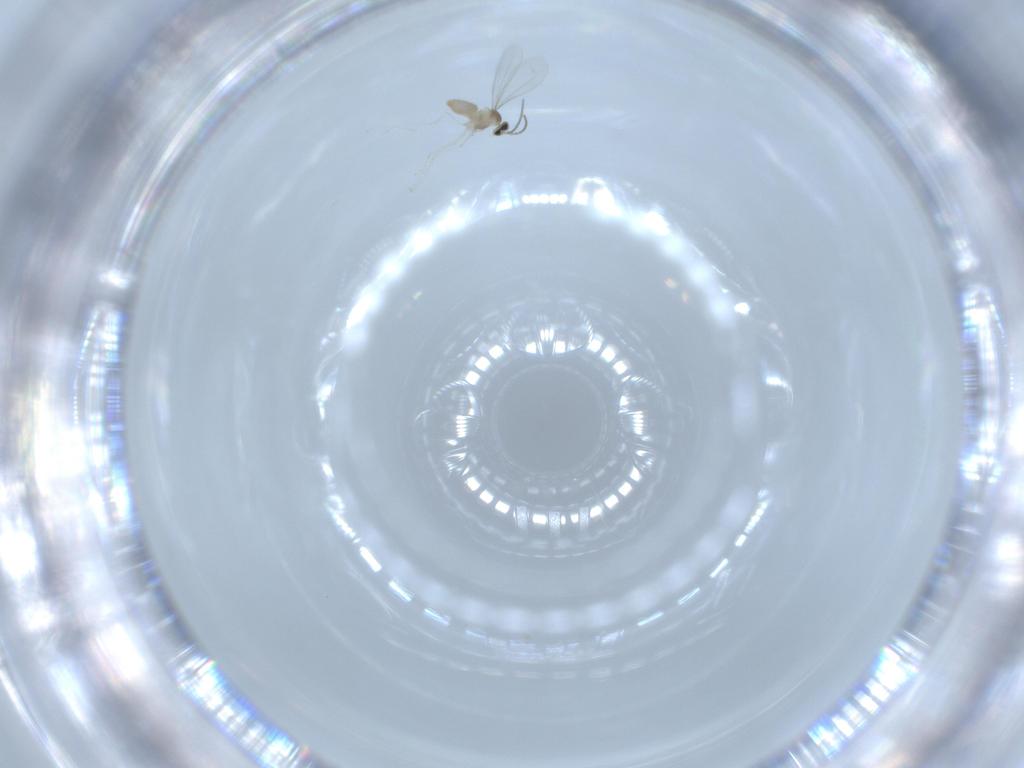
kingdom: Animalia
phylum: Arthropoda
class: Insecta
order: Diptera
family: Cecidomyiidae
